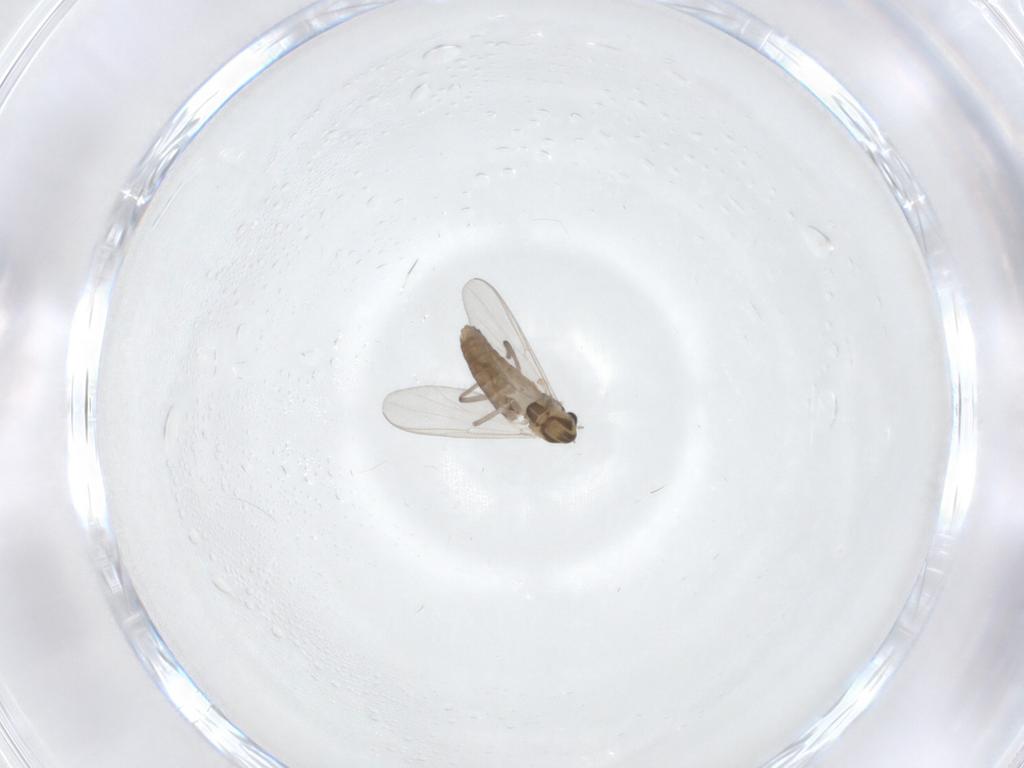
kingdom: Animalia
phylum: Arthropoda
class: Insecta
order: Diptera
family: Chironomidae
